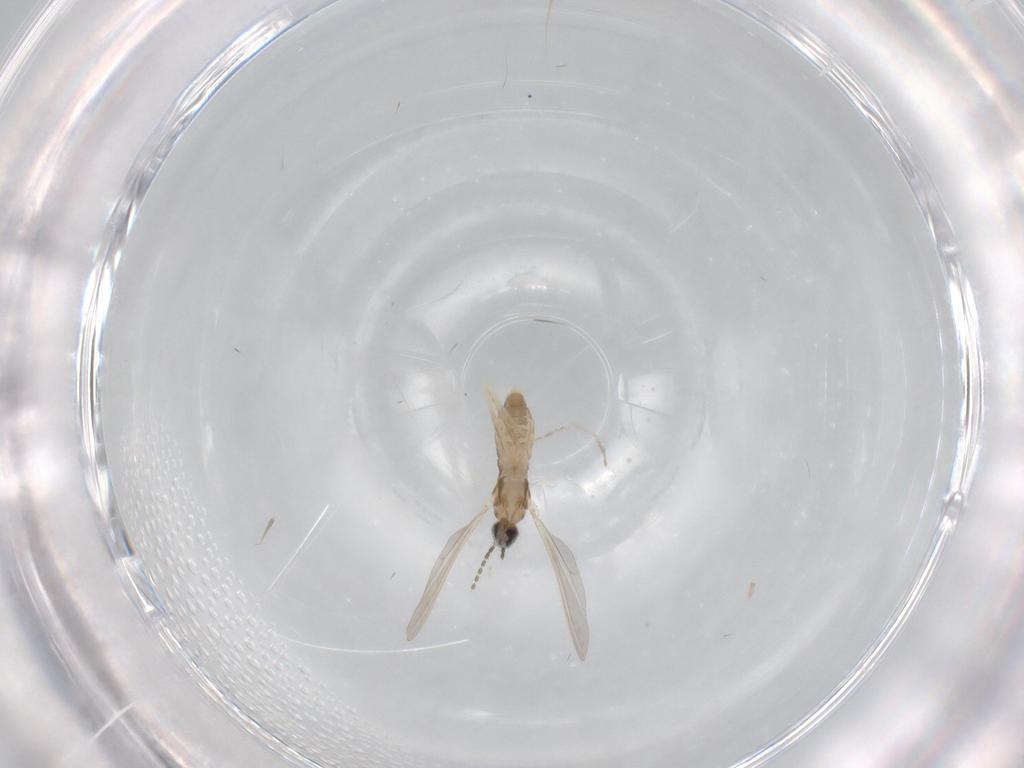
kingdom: Animalia
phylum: Arthropoda
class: Insecta
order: Diptera
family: Cecidomyiidae
